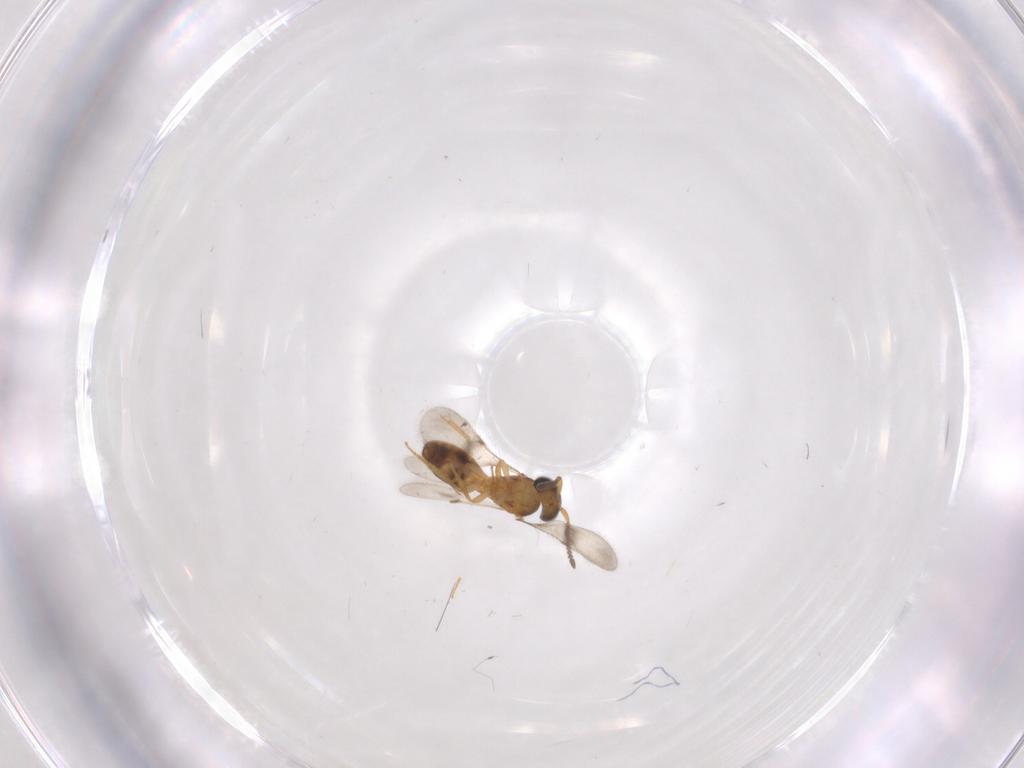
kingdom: Animalia
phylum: Arthropoda
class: Insecta
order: Hymenoptera
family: Scelionidae
